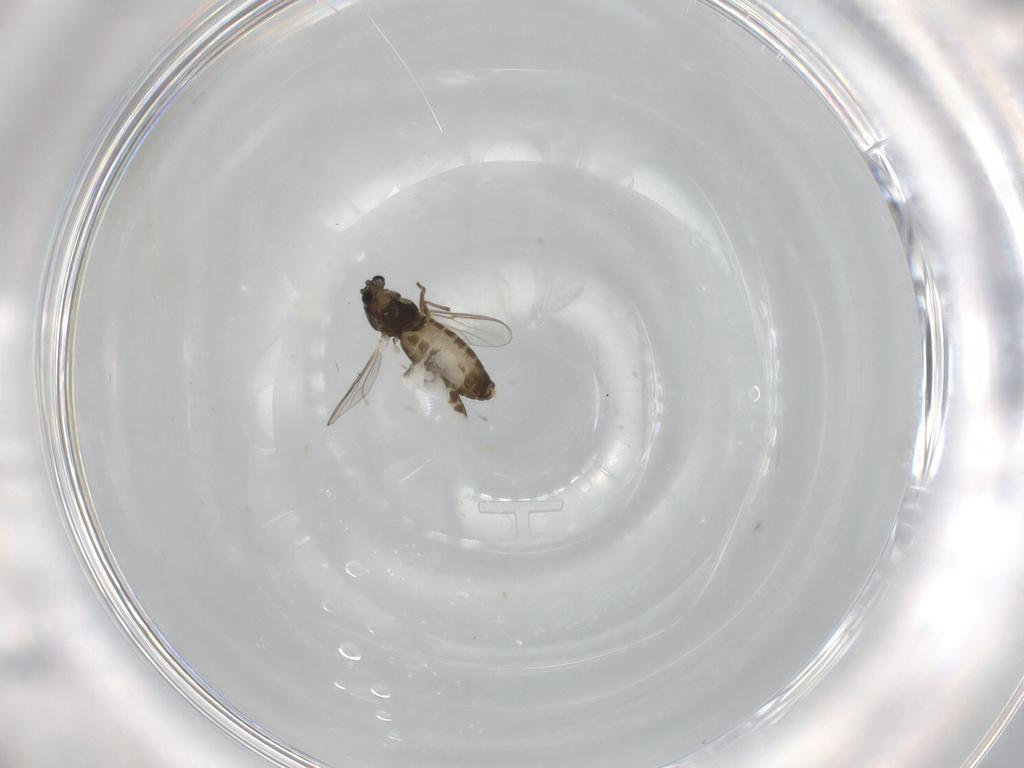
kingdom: Animalia
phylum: Arthropoda
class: Insecta
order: Diptera
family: Chironomidae
